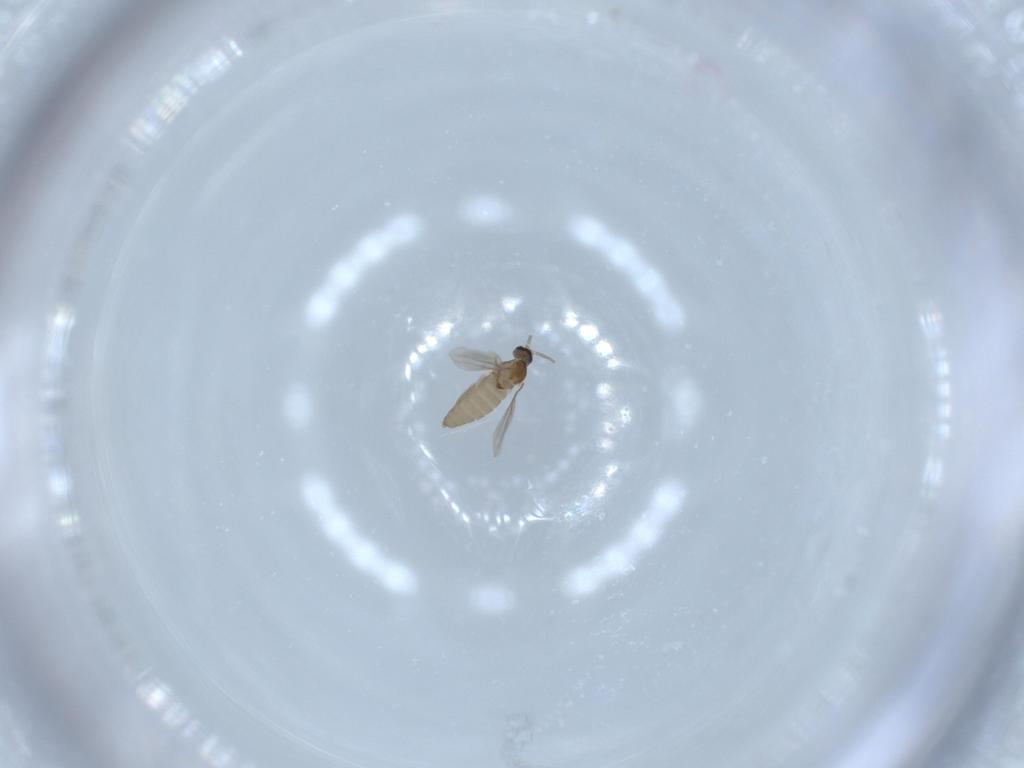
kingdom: Animalia
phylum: Arthropoda
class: Insecta
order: Diptera
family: Cecidomyiidae
